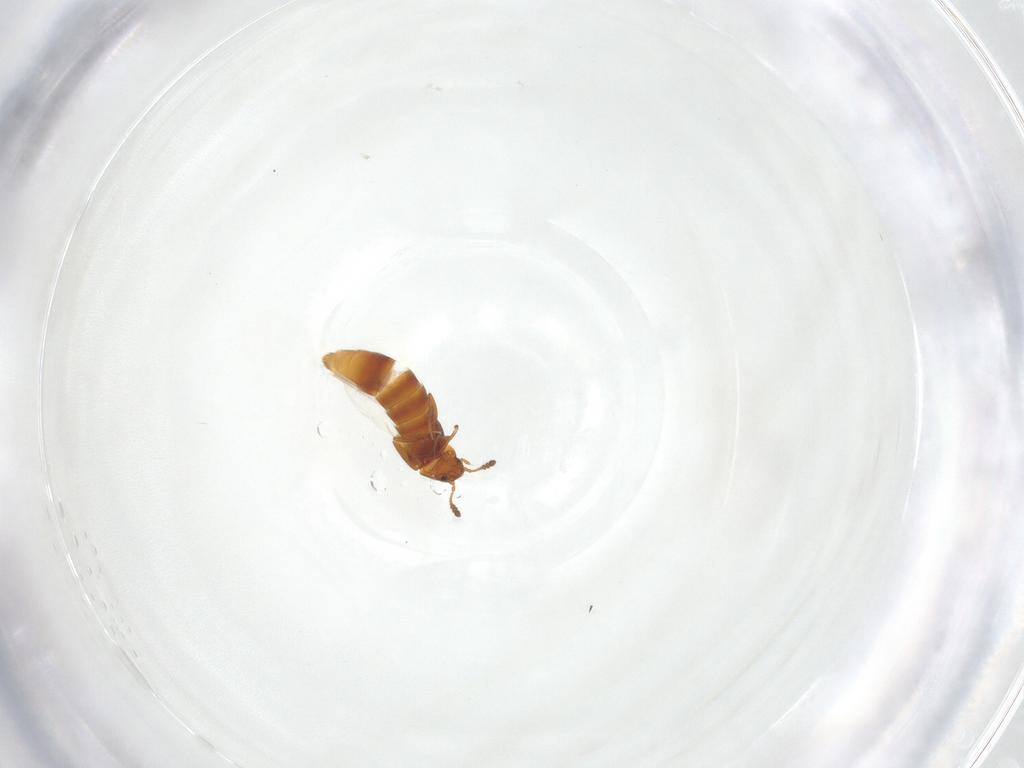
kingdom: Animalia
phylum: Arthropoda
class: Insecta
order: Coleoptera
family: Staphylinidae
